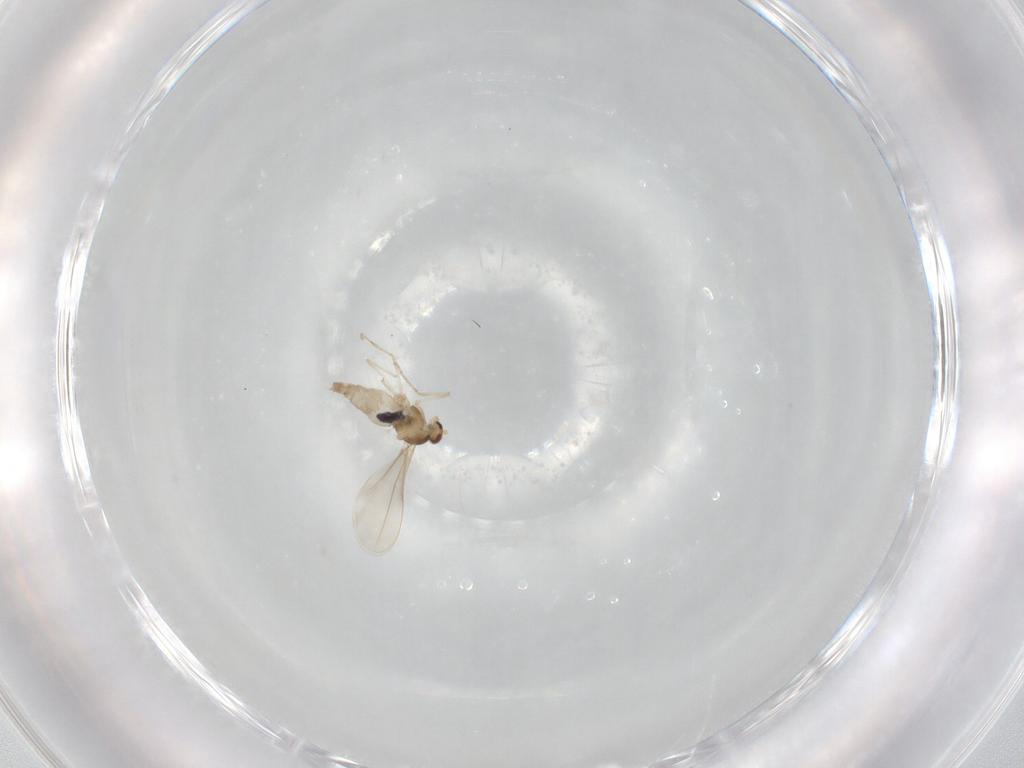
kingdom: Animalia
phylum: Arthropoda
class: Insecta
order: Diptera
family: Cecidomyiidae
